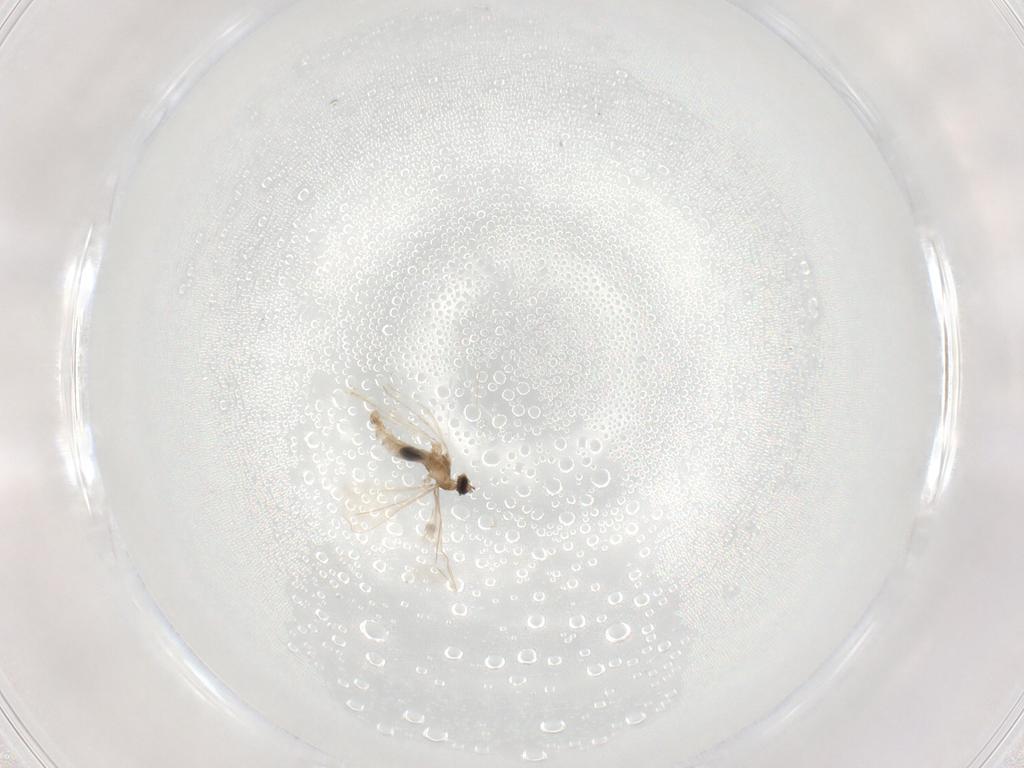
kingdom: Animalia
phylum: Arthropoda
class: Insecta
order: Diptera
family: Cecidomyiidae
